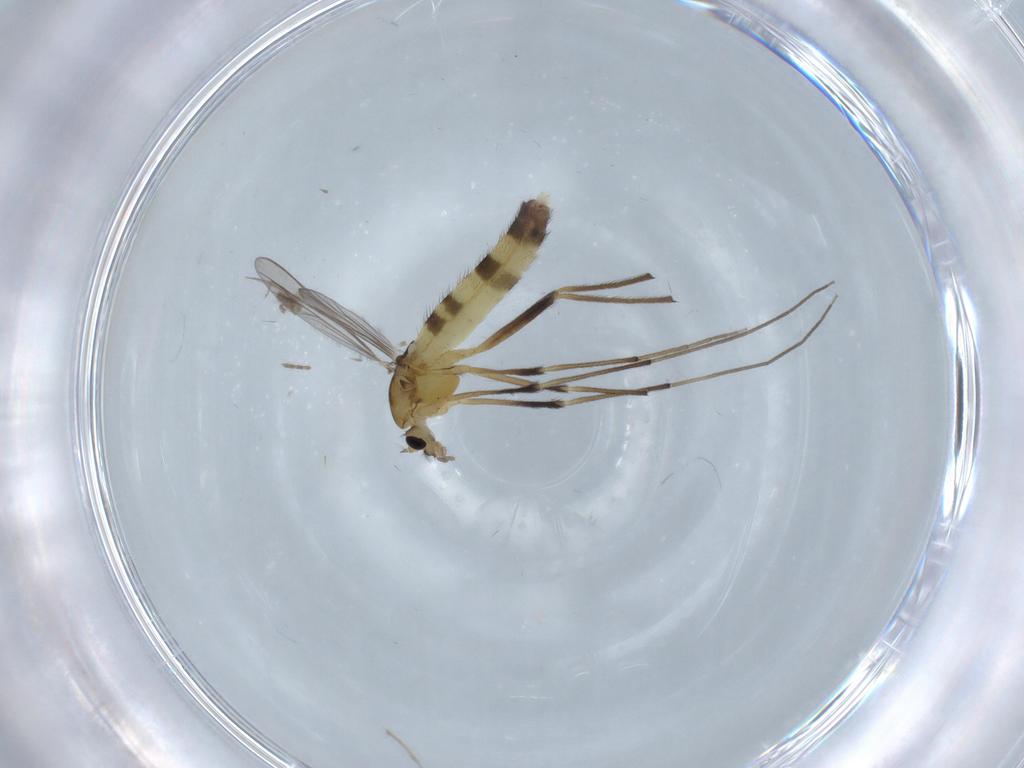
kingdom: Animalia
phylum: Arthropoda
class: Insecta
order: Diptera
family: Chironomidae
